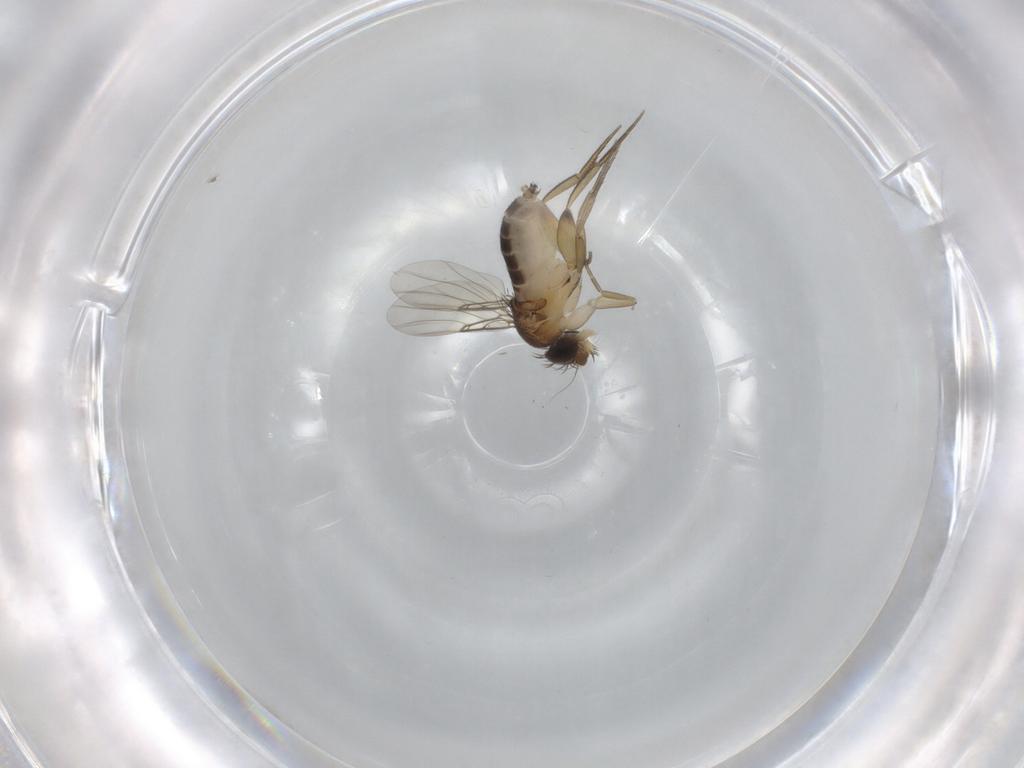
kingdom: Animalia
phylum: Arthropoda
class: Insecta
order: Diptera
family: Phoridae
